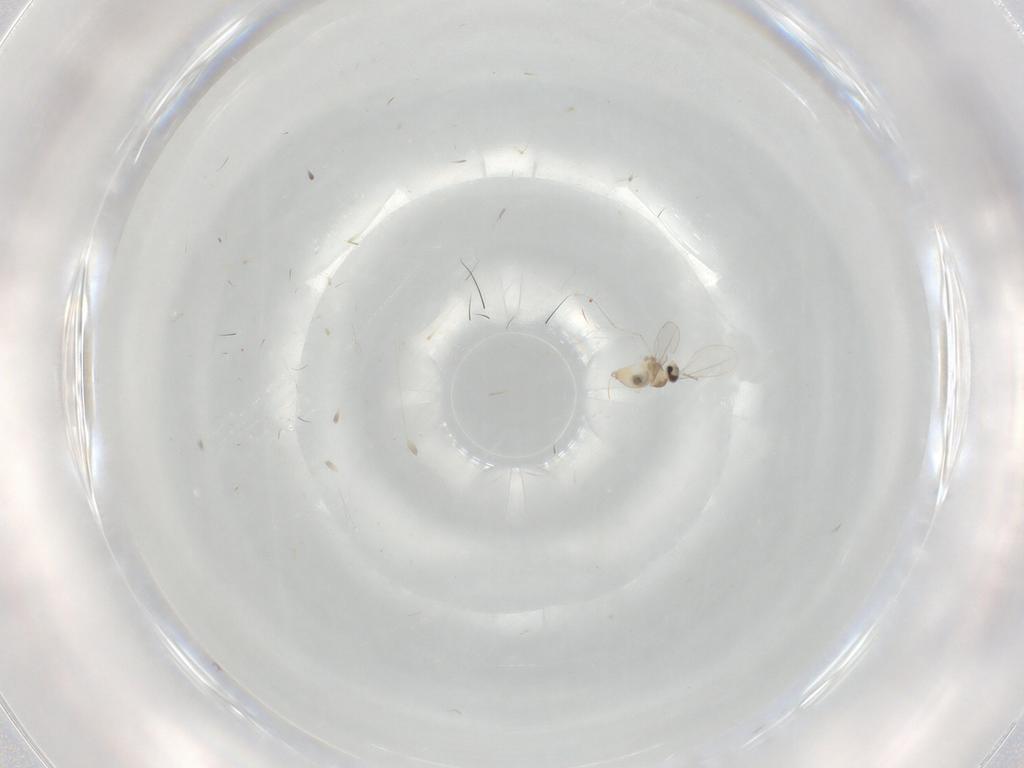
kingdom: Animalia
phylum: Arthropoda
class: Insecta
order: Diptera
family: Cecidomyiidae
